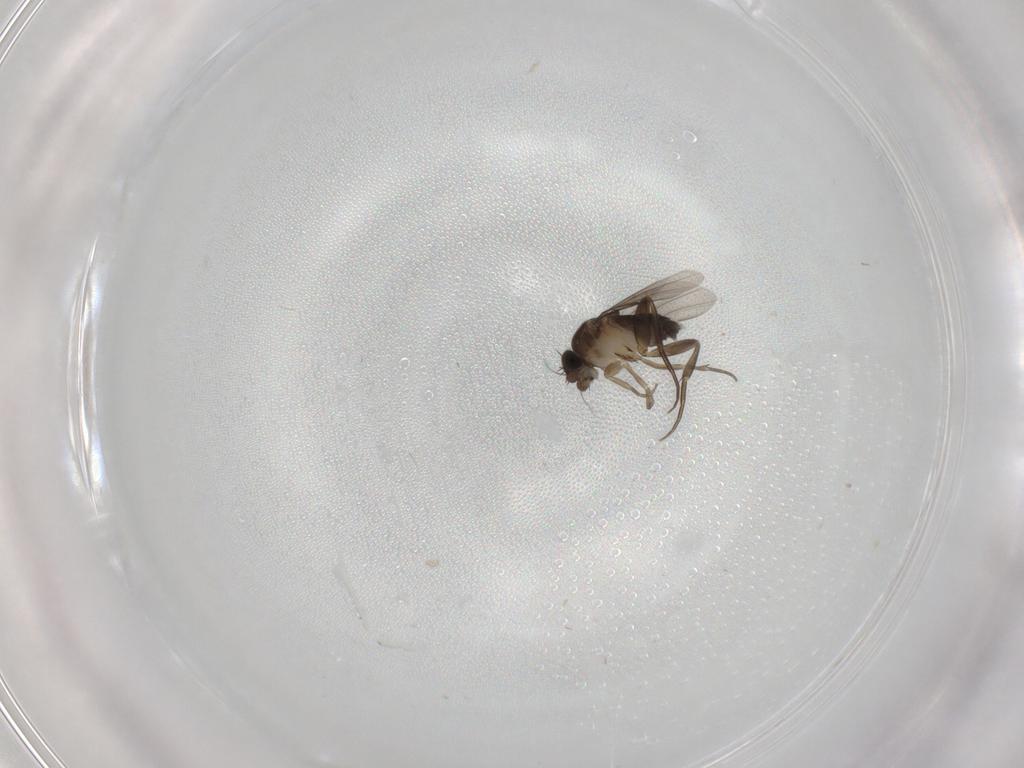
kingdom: Animalia
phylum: Arthropoda
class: Insecta
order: Diptera
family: Phoridae
